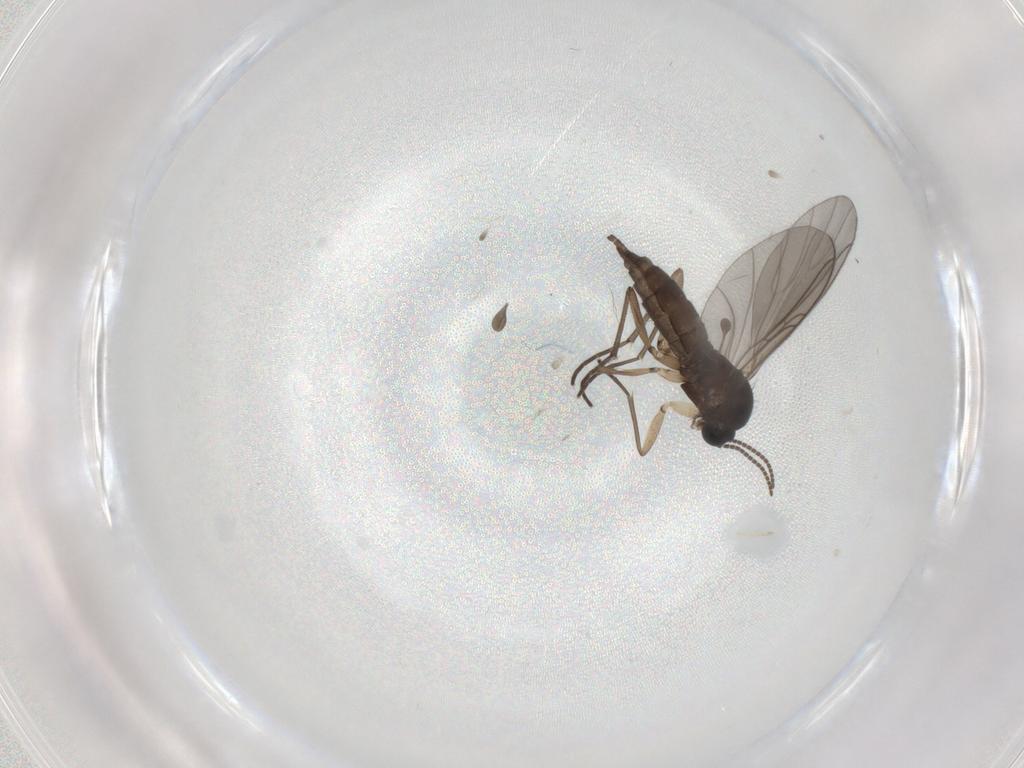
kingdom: Animalia
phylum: Arthropoda
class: Insecta
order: Diptera
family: Sciaridae
